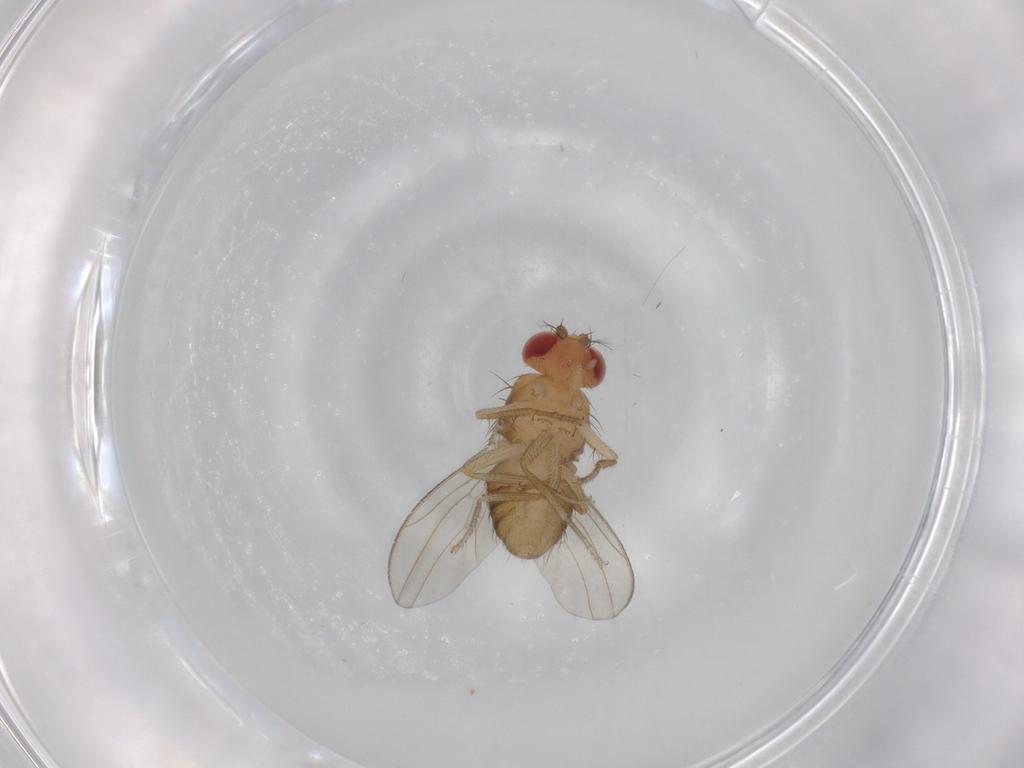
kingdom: Animalia
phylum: Arthropoda
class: Insecta
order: Diptera
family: Drosophilidae
